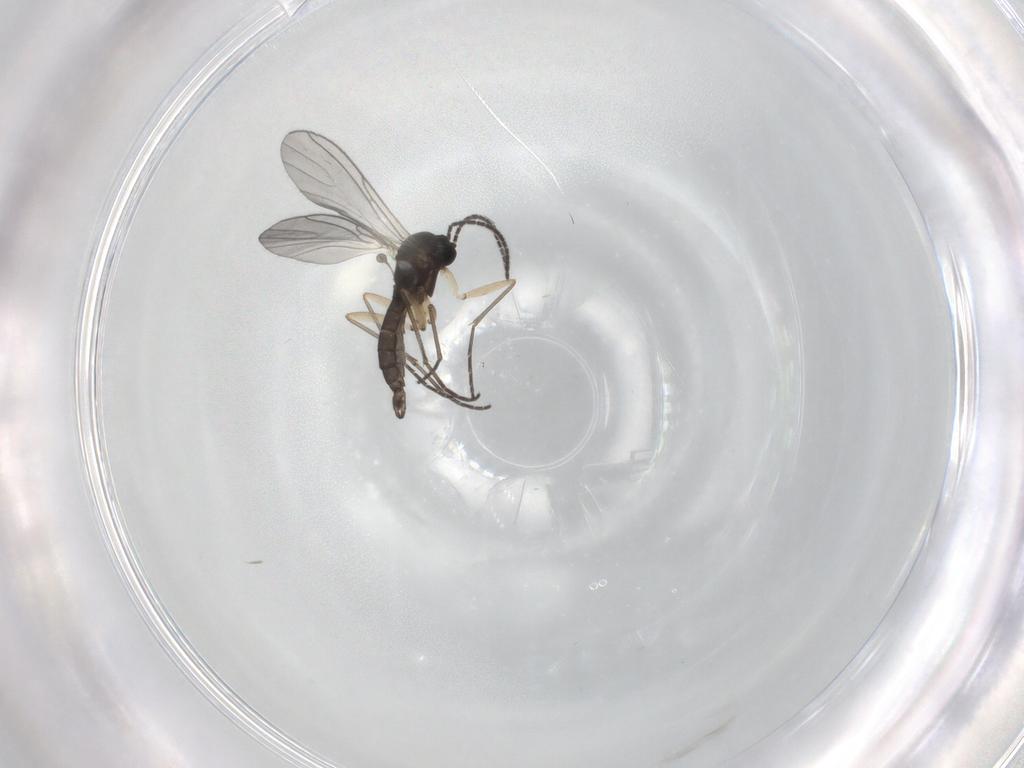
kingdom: Animalia
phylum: Arthropoda
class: Insecta
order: Diptera
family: Sciaridae
